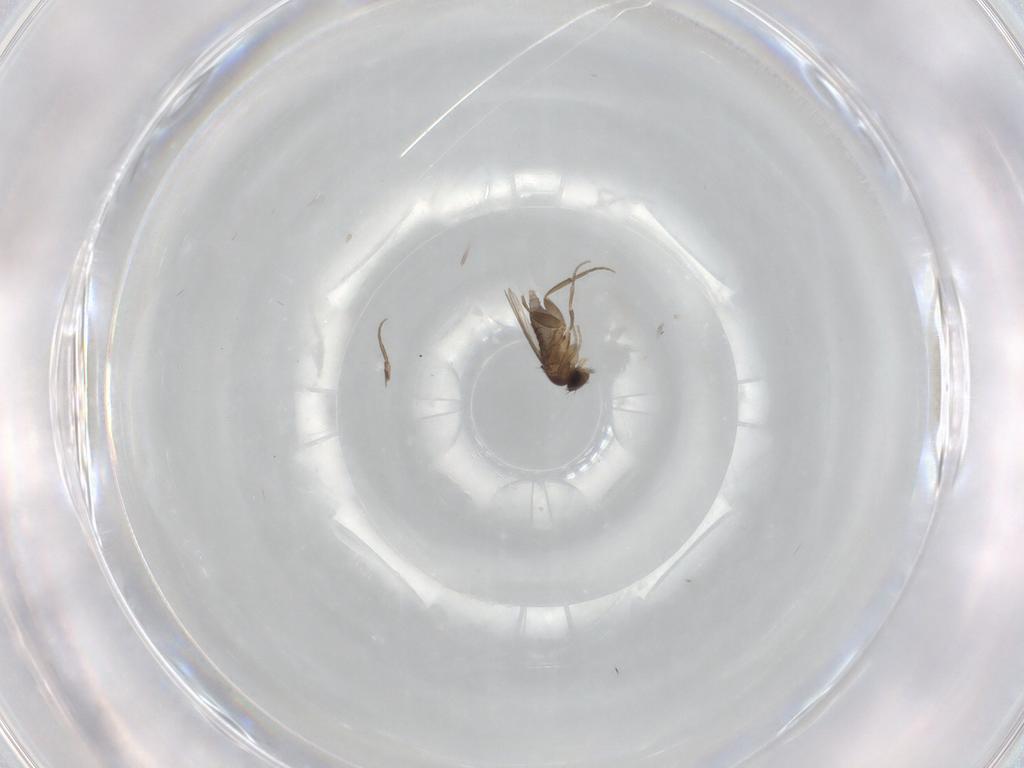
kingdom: Animalia
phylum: Arthropoda
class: Insecta
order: Diptera
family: Phoridae
